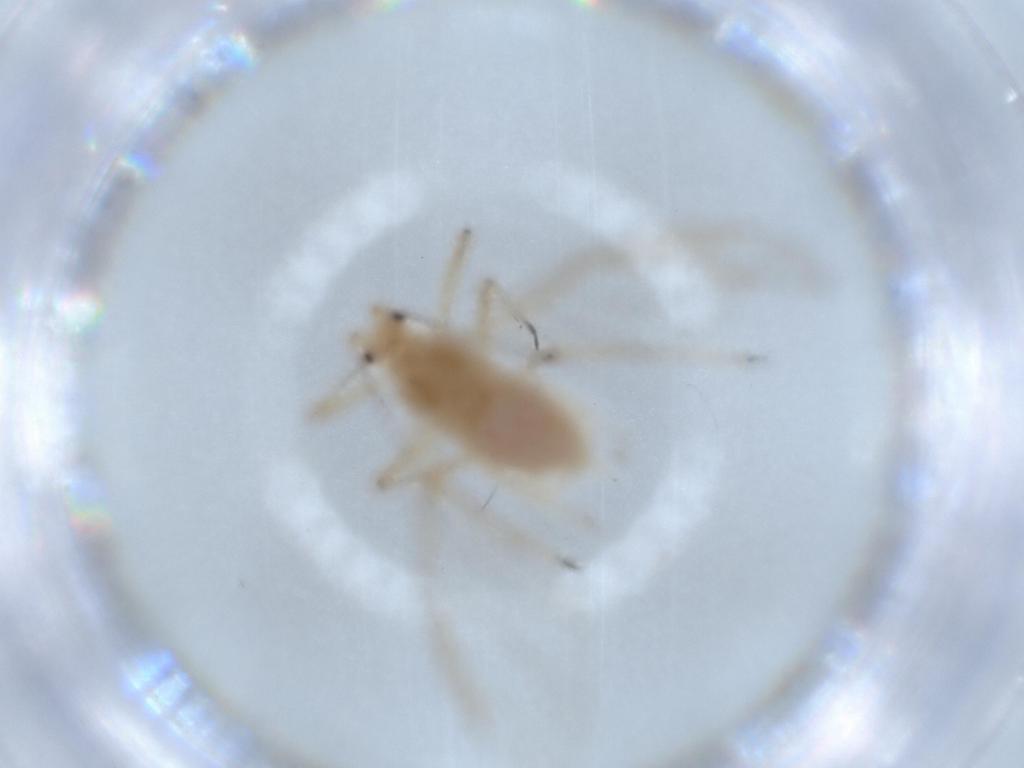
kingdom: Animalia
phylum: Arthropoda
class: Insecta
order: Hemiptera
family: Aphididae
